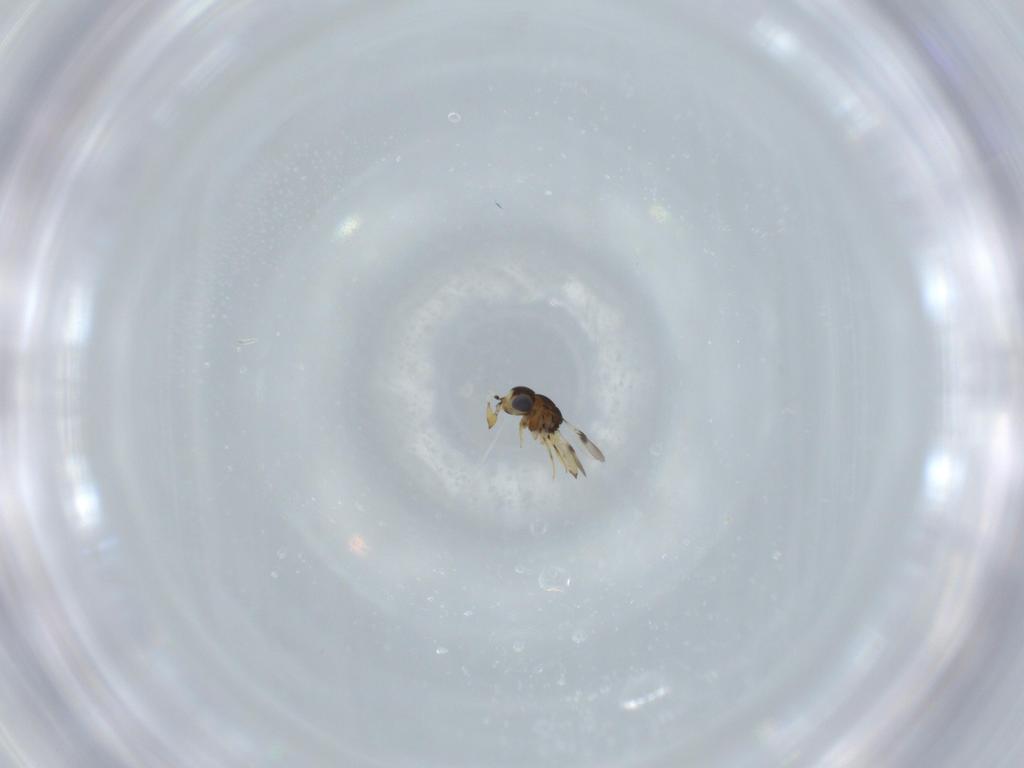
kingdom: Animalia
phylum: Arthropoda
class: Insecta
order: Hymenoptera
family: Scelionidae
